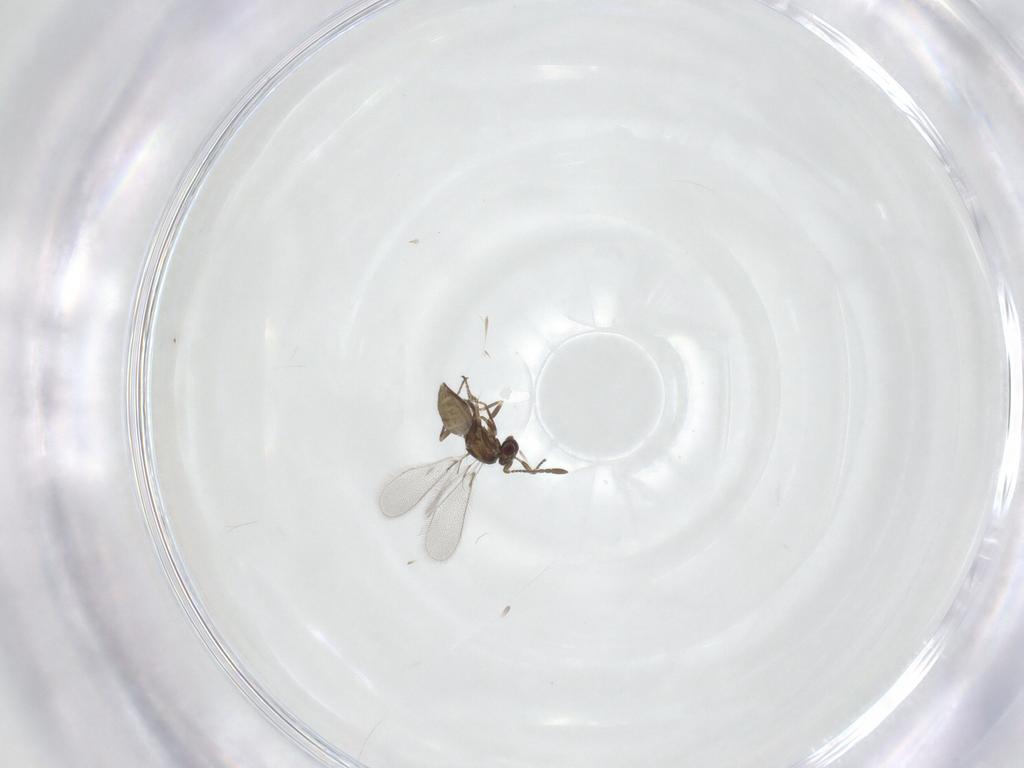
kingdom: Animalia
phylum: Arthropoda
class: Insecta
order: Hymenoptera
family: Mymaridae
